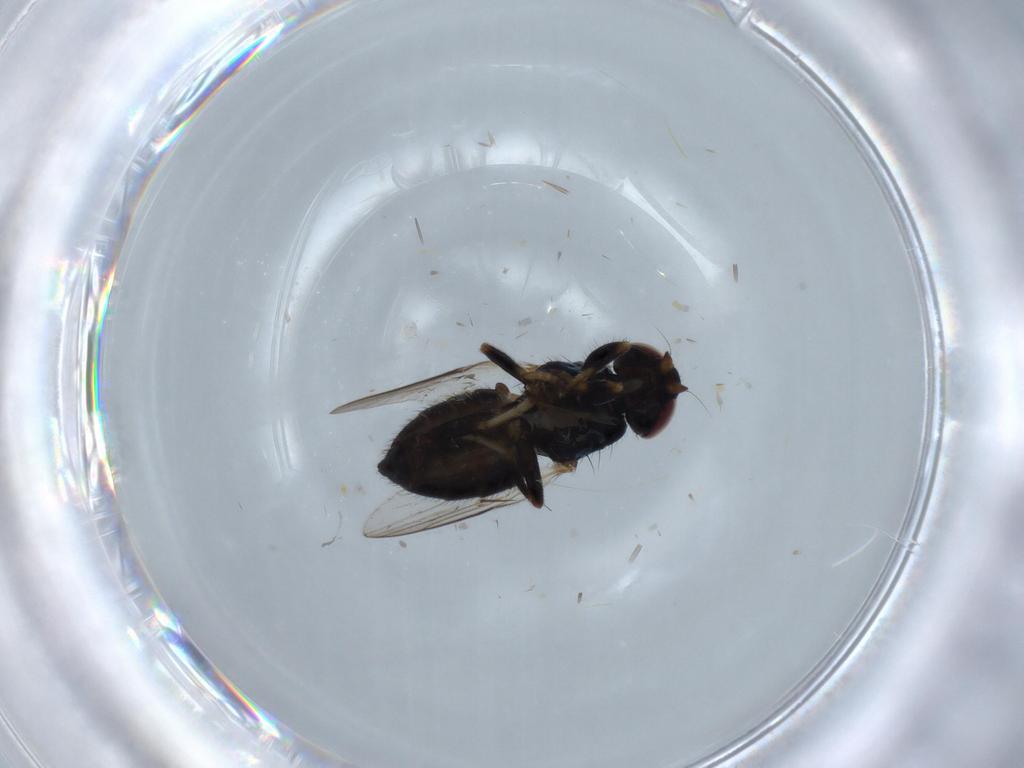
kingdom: Animalia
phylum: Arthropoda
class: Insecta
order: Diptera
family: Chloropidae
